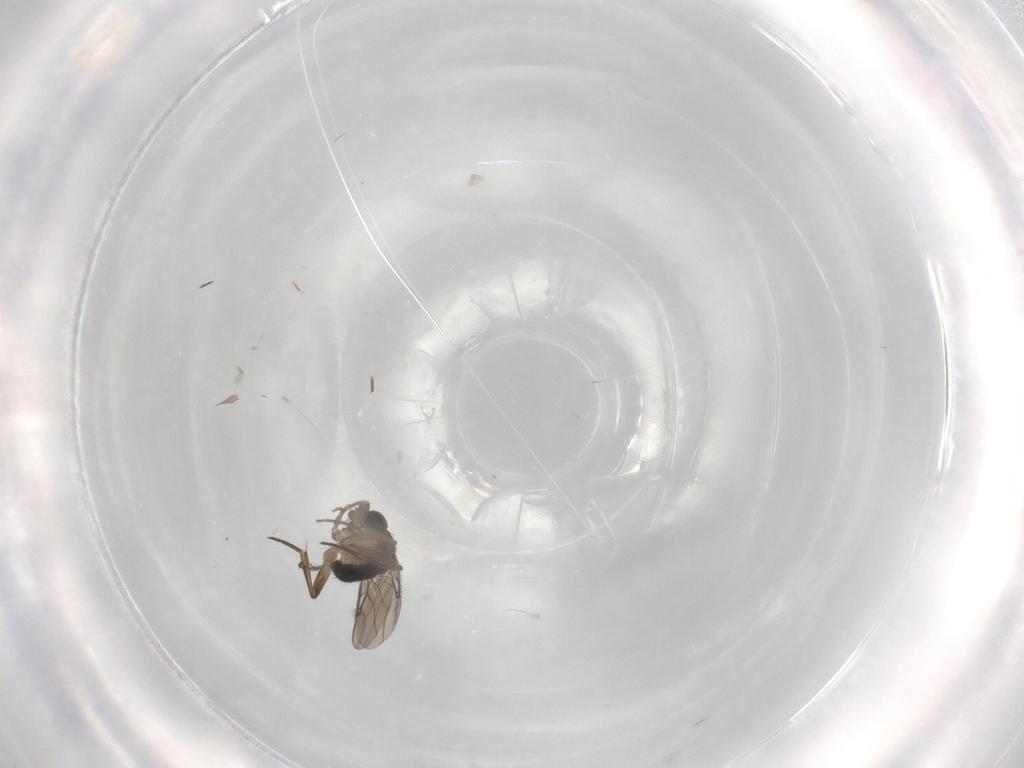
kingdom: Animalia
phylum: Arthropoda
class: Insecta
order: Diptera
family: Phoridae
